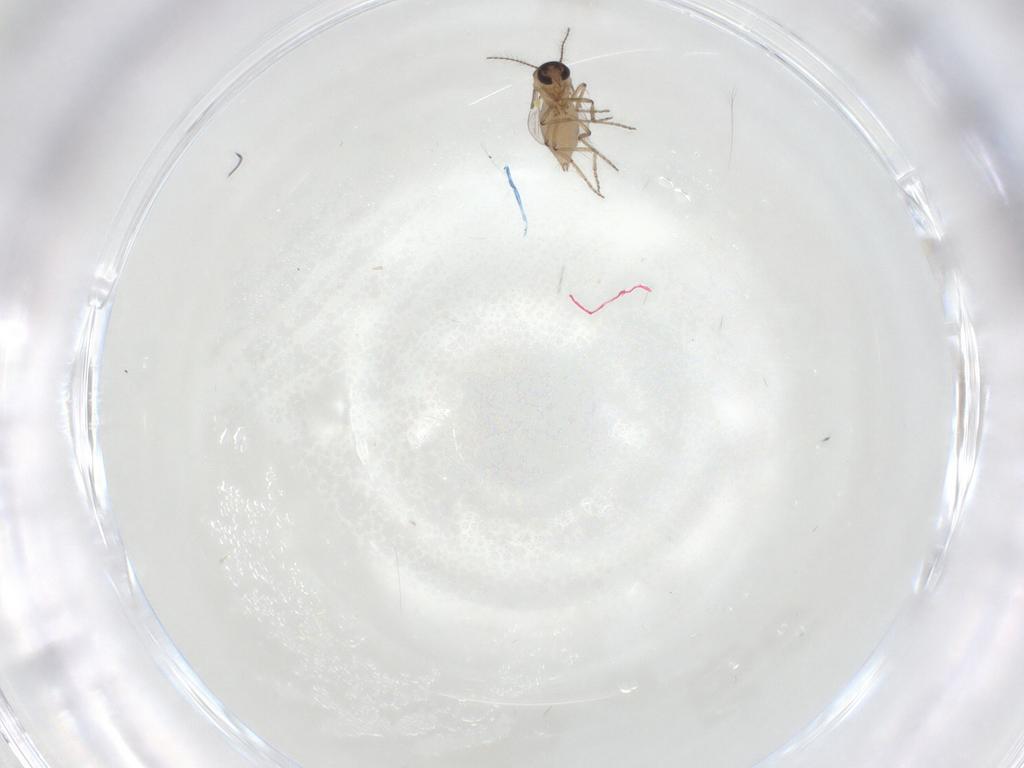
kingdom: Animalia
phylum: Arthropoda
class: Insecta
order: Diptera
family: Ceratopogonidae
